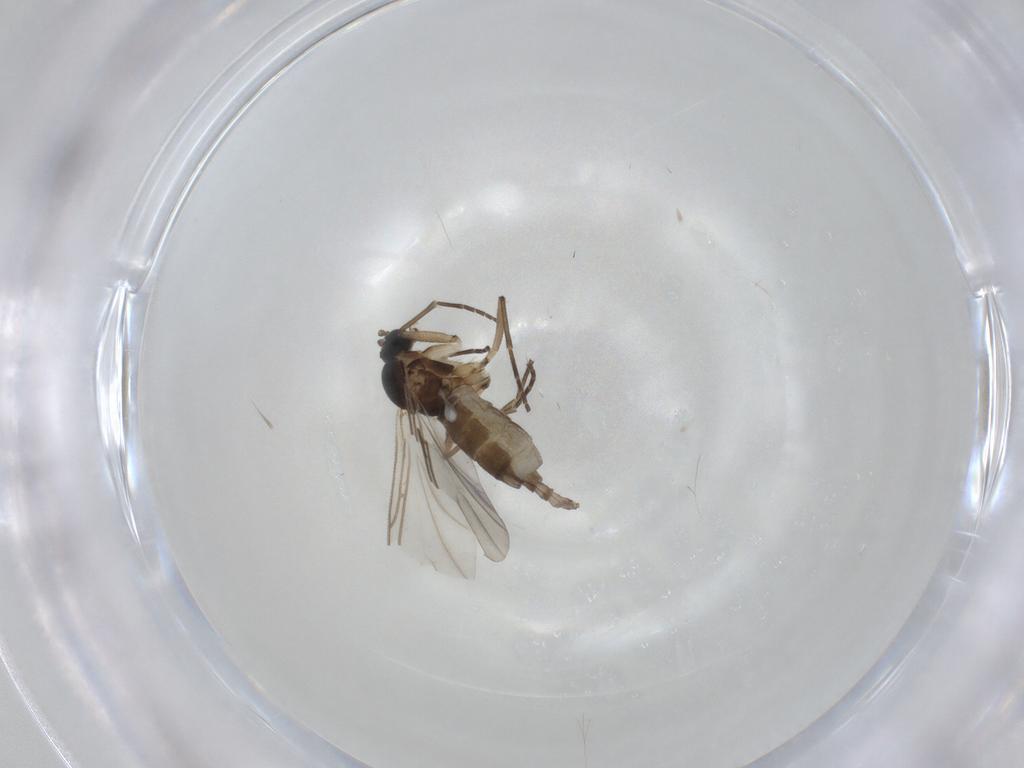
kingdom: Animalia
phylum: Arthropoda
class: Insecta
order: Diptera
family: Anthomyiidae
